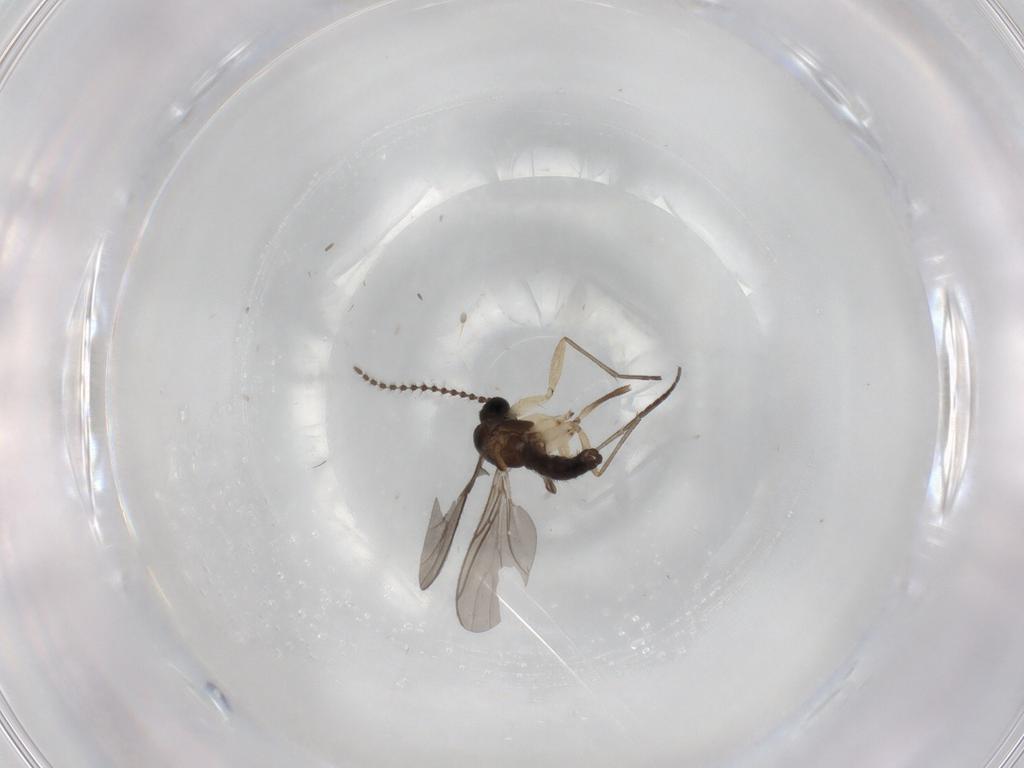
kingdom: Animalia
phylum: Arthropoda
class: Insecta
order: Diptera
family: Sciaridae
